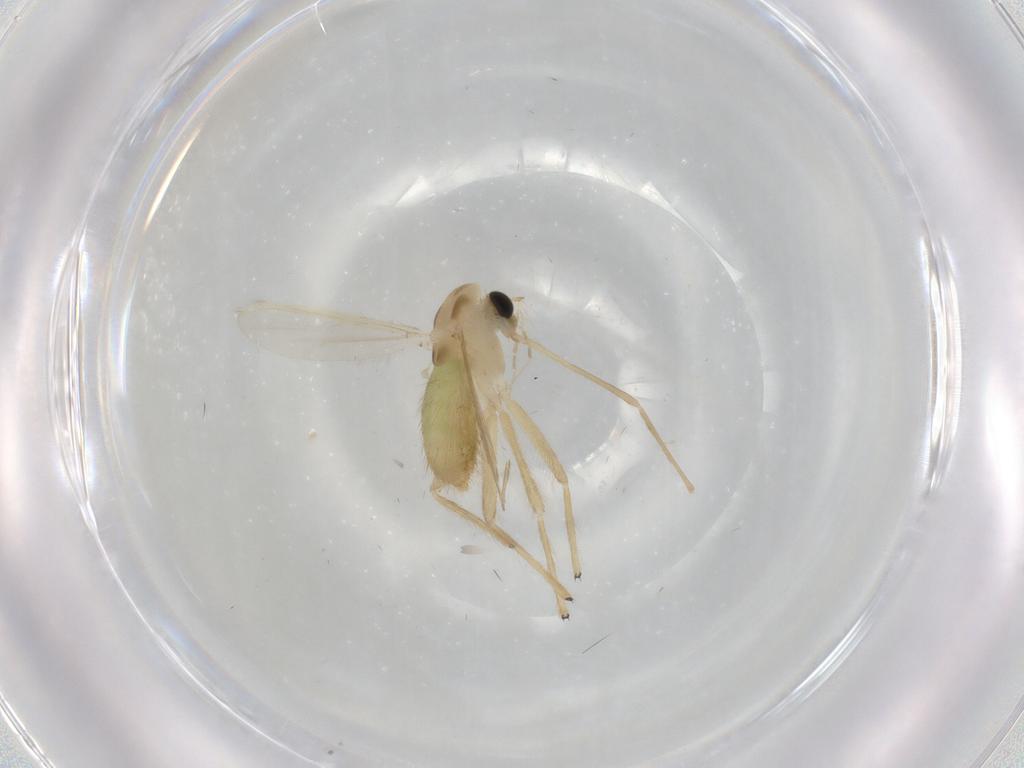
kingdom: Animalia
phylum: Arthropoda
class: Insecta
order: Diptera
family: Chironomidae
